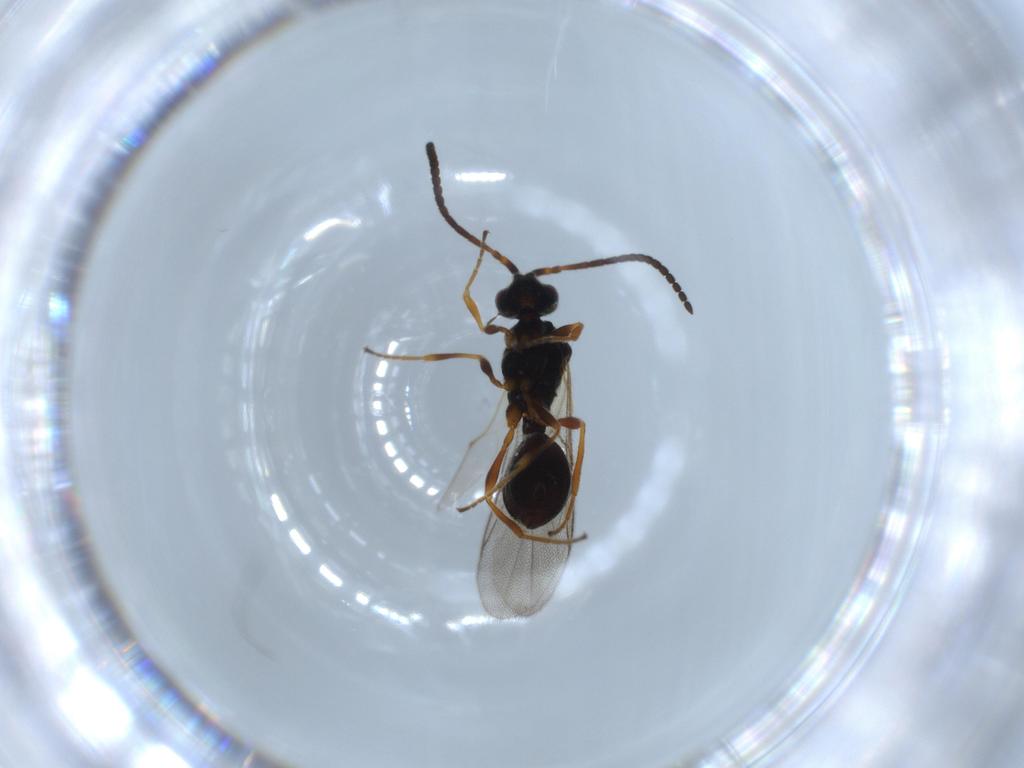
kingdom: Animalia
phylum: Arthropoda
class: Insecta
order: Hymenoptera
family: Diapriidae
